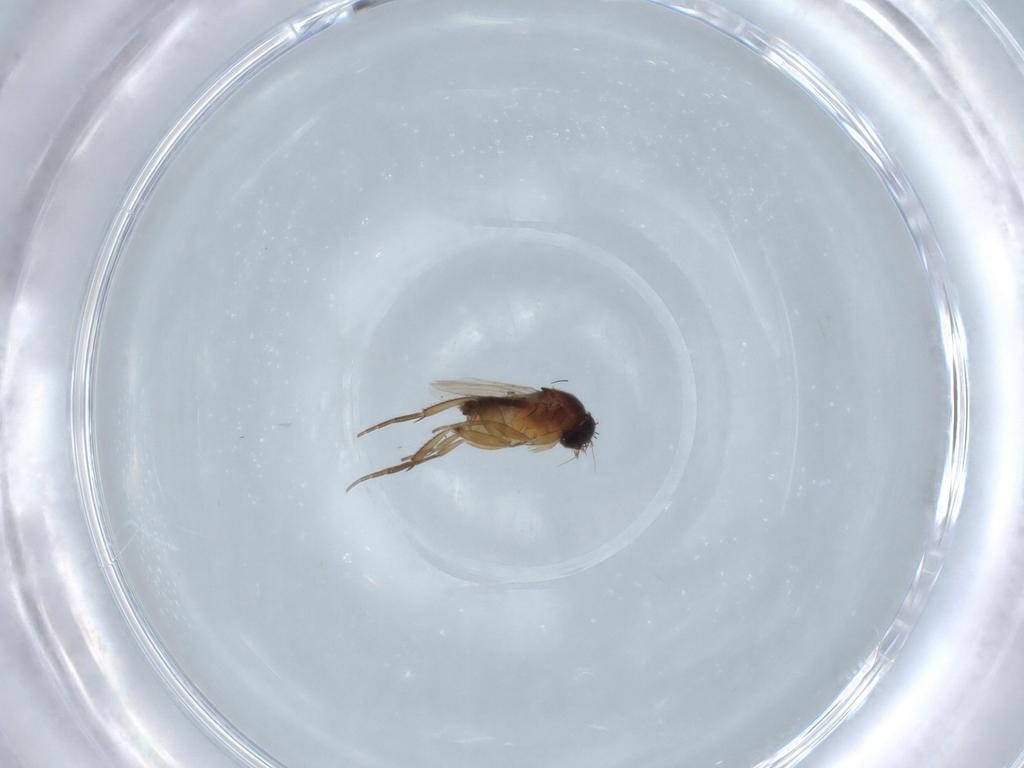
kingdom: Animalia
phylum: Arthropoda
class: Insecta
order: Diptera
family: Phoridae
